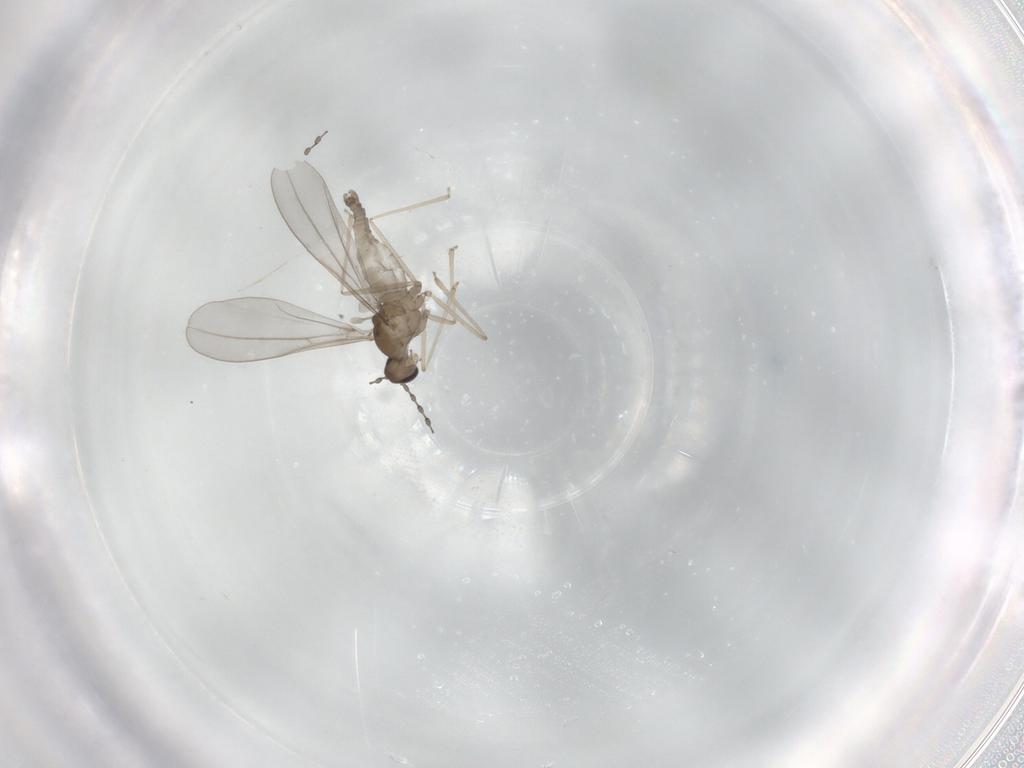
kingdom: Animalia
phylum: Arthropoda
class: Insecta
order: Diptera
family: Cecidomyiidae
